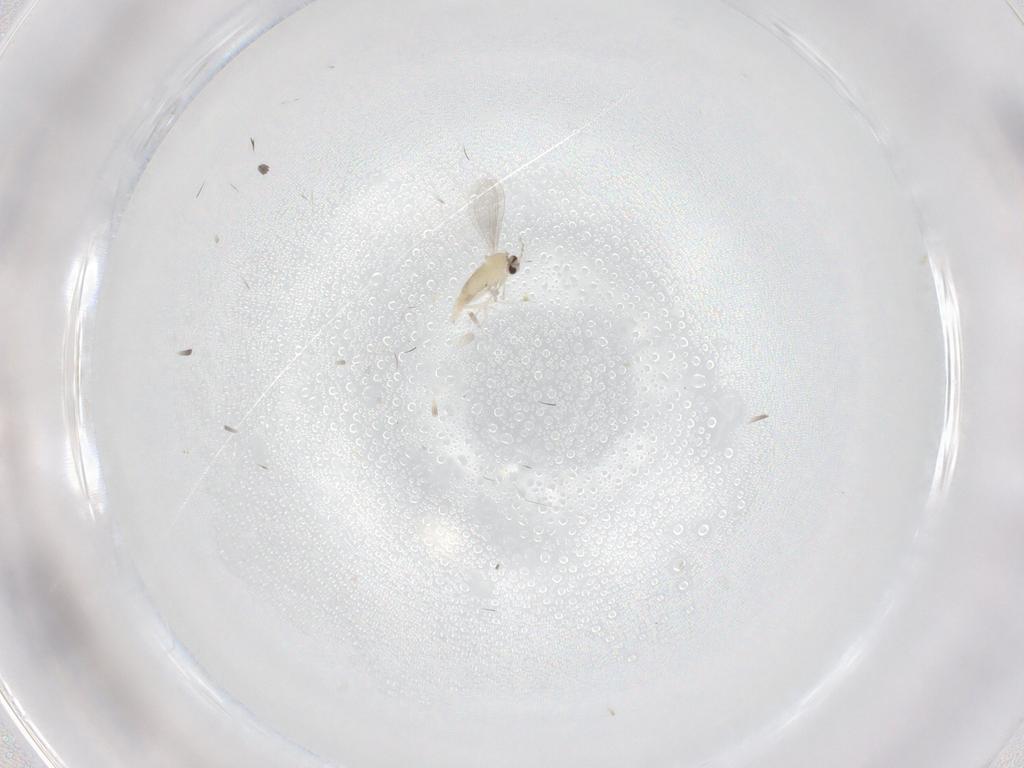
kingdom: Animalia
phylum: Arthropoda
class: Insecta
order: Diptera
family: Cecidomyiidae
